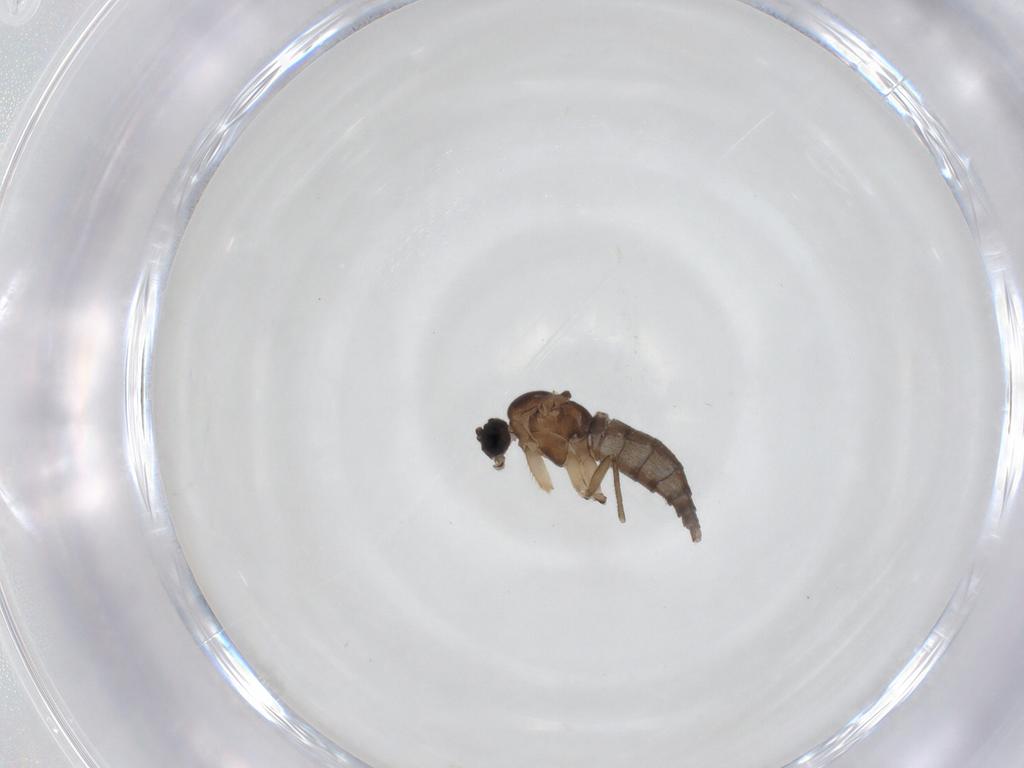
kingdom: Animalia
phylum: Arthropoda
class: Insecta
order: Diptera
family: Sciaridae
